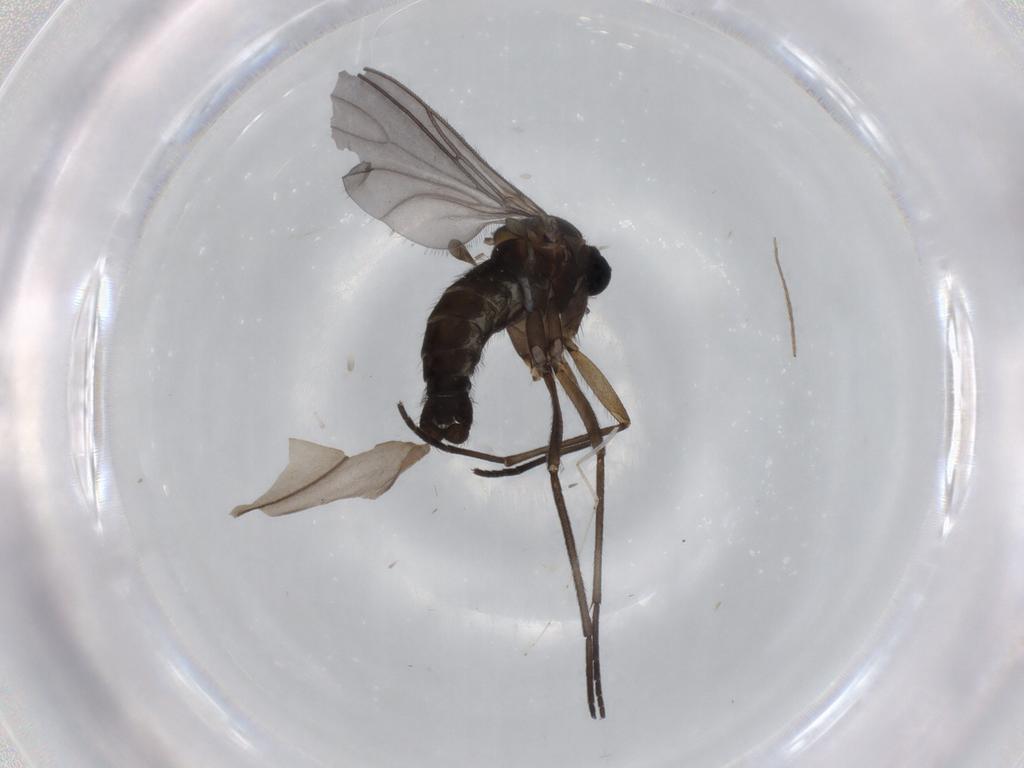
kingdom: Animalia
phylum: Arthropoda
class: Insecta
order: Diptera
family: Sciaridae
